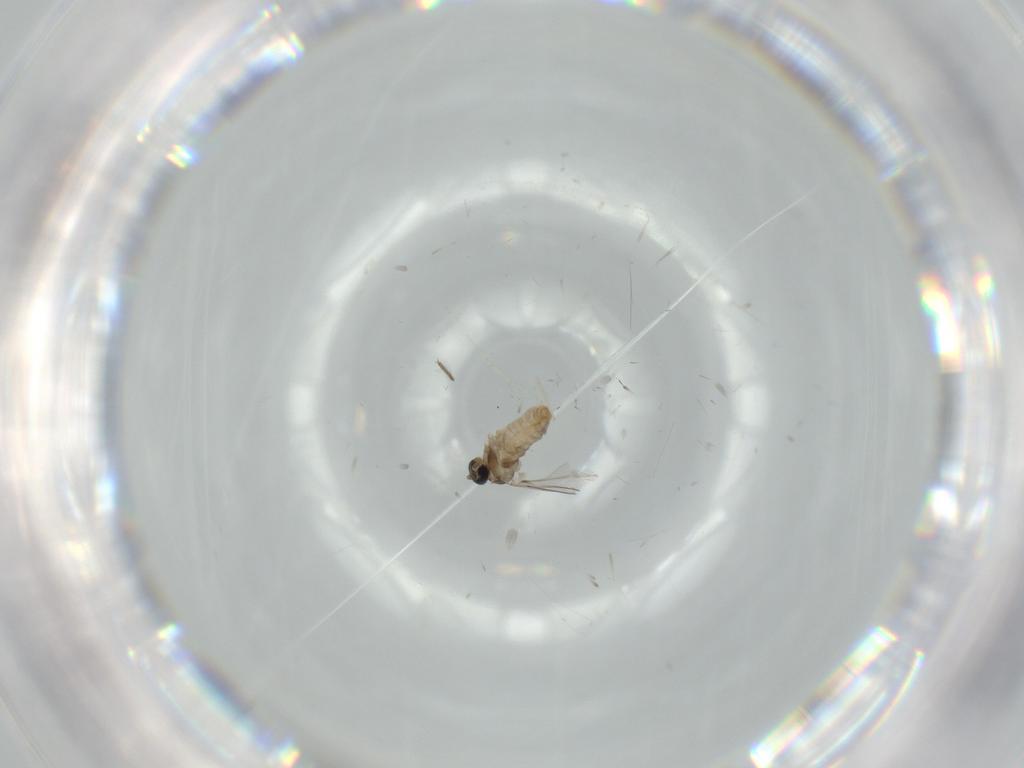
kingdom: Animalia
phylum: Arthropoda
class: Insecta
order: Diptera
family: Cecidomyiidae
